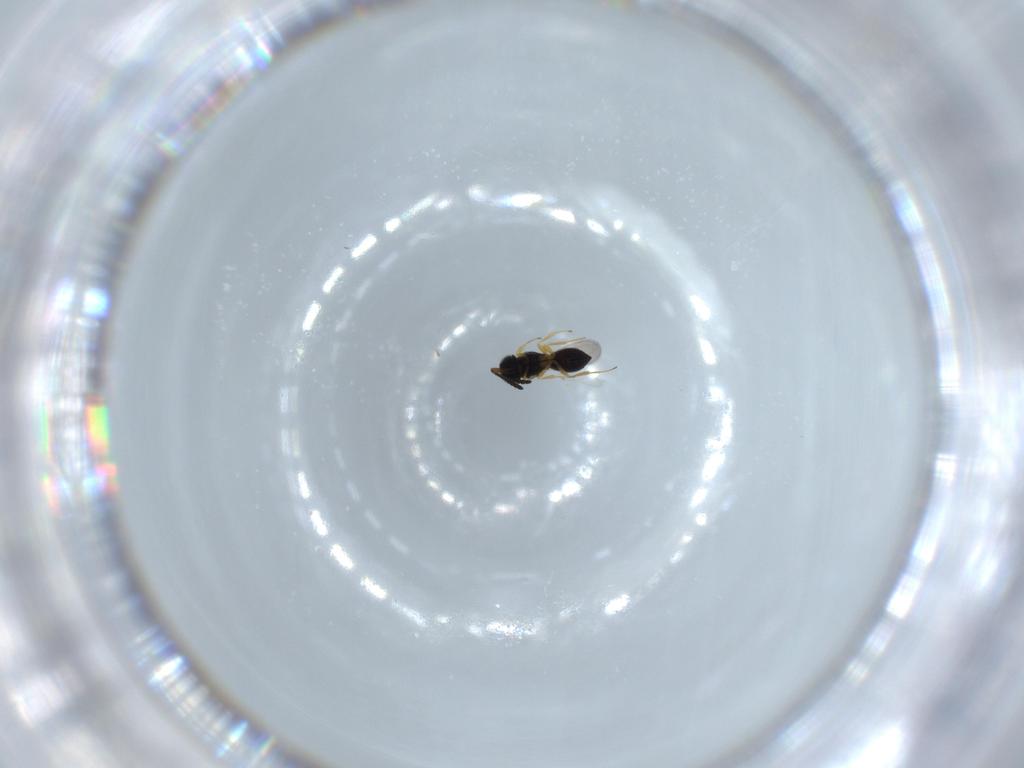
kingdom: Animalia
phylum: Arthropoda
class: Insecta
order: Hymenoptera
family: Scelionidae
